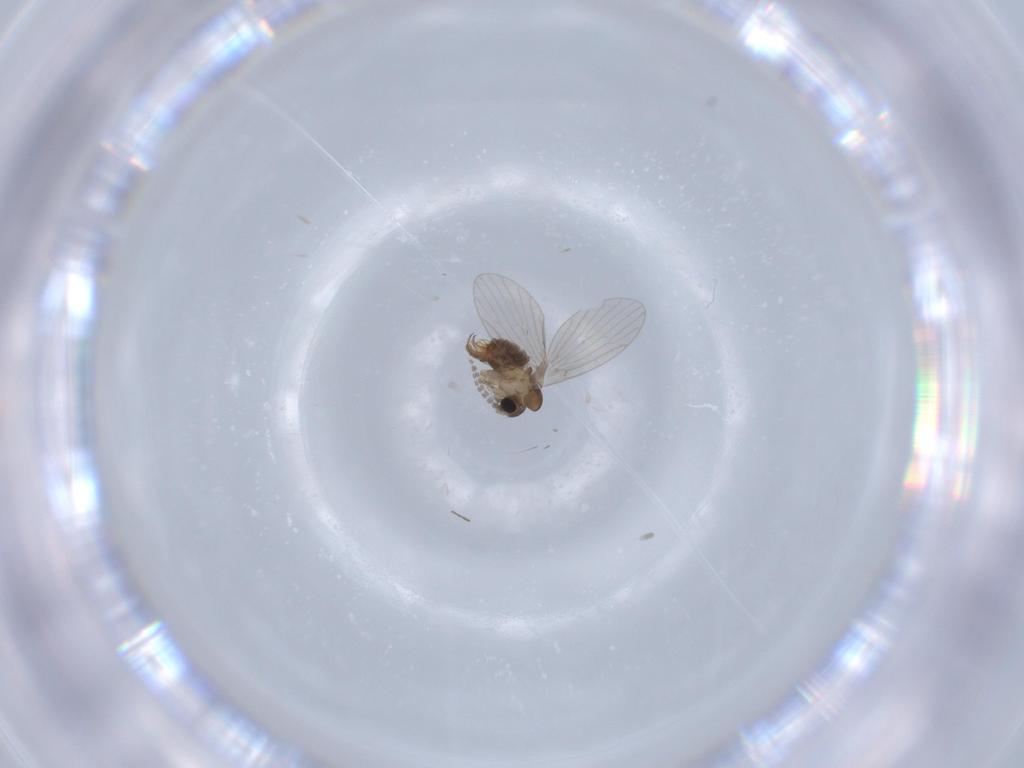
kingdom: Animalia
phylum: Arthropoda
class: Insecta
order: Diptera
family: Psychodidae
